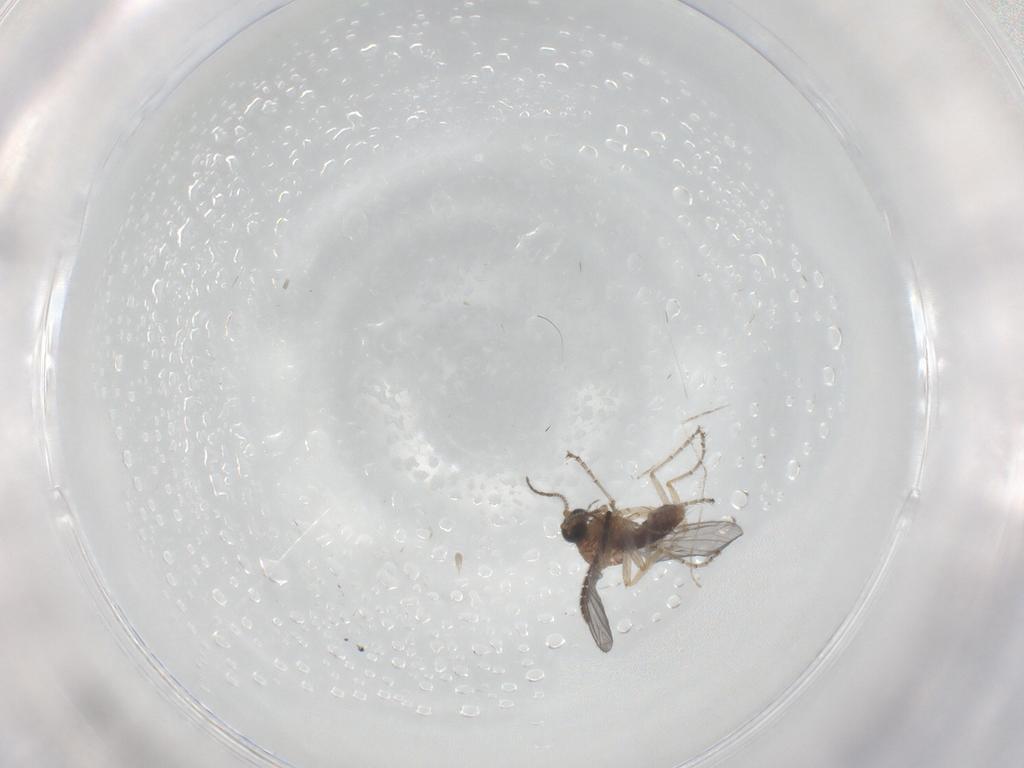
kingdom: Animalia
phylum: Arthropoda
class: Insecta
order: Diptera
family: Ceratopogonidae
